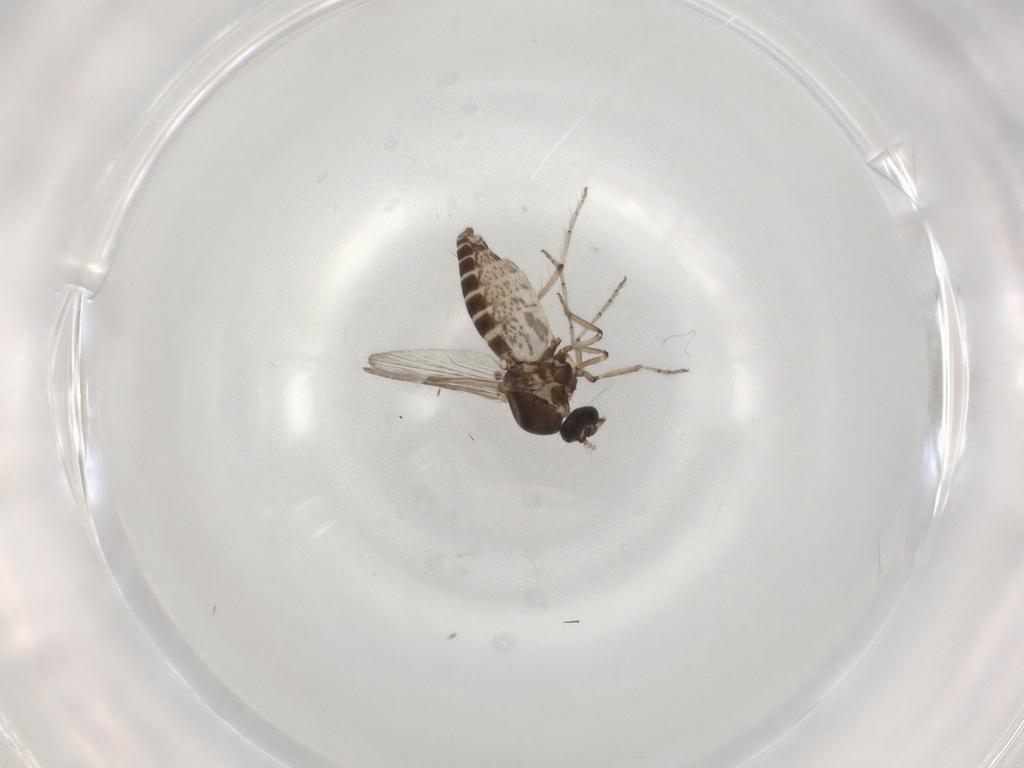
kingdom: Animalia
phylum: Arthropoda
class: Insecta
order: Diptera
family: Ceratopogonidae
